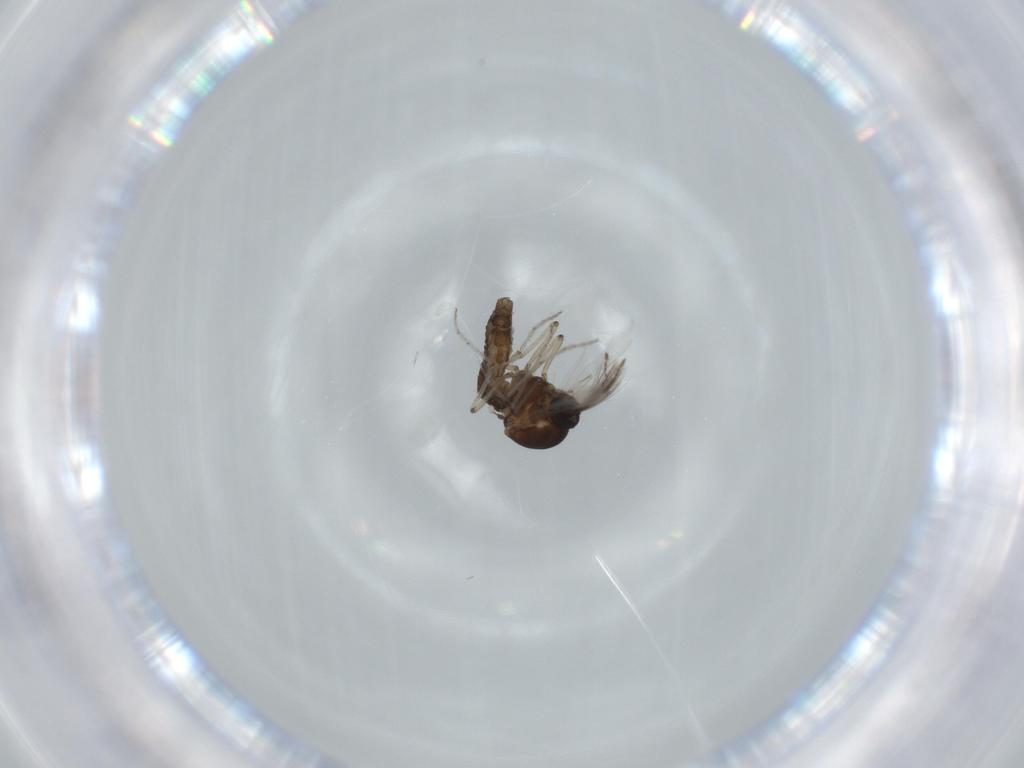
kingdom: Animalia
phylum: Arthropoda
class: Insecta
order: Diptera
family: Ceratopogonidae
